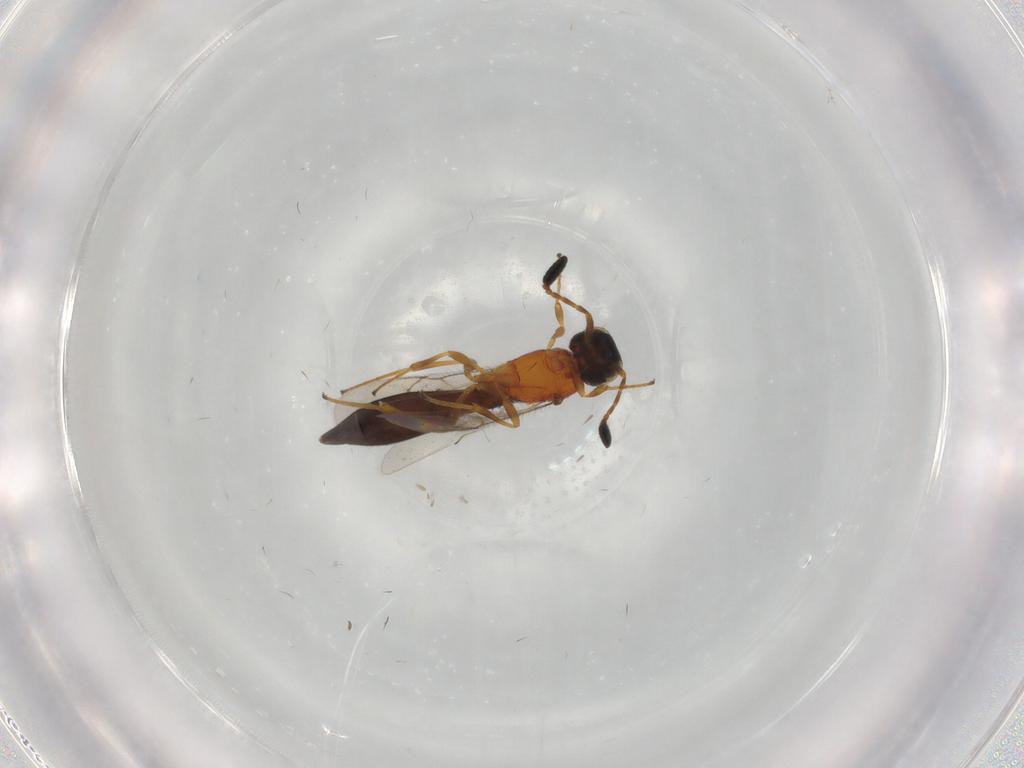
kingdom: Animalia
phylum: Arthropoda
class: Insecta
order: Hymenoptera
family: Scelionidae
